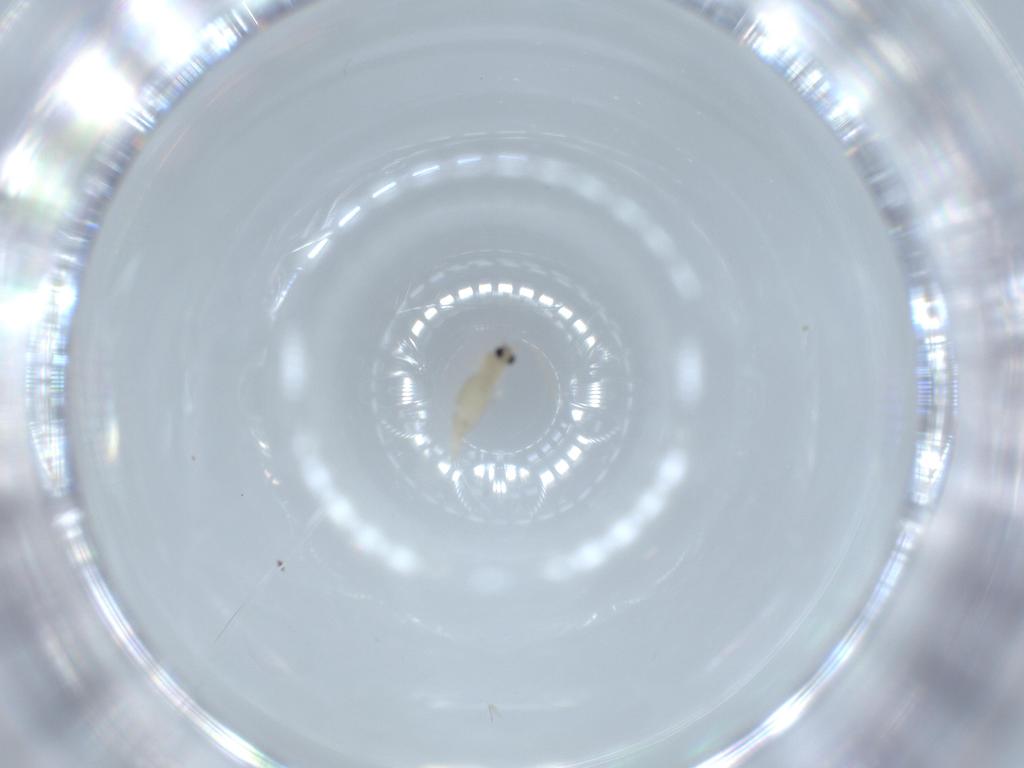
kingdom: Animalia
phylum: Arthropoda
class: Insecta
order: Diptera
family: Cecidomyiidae
